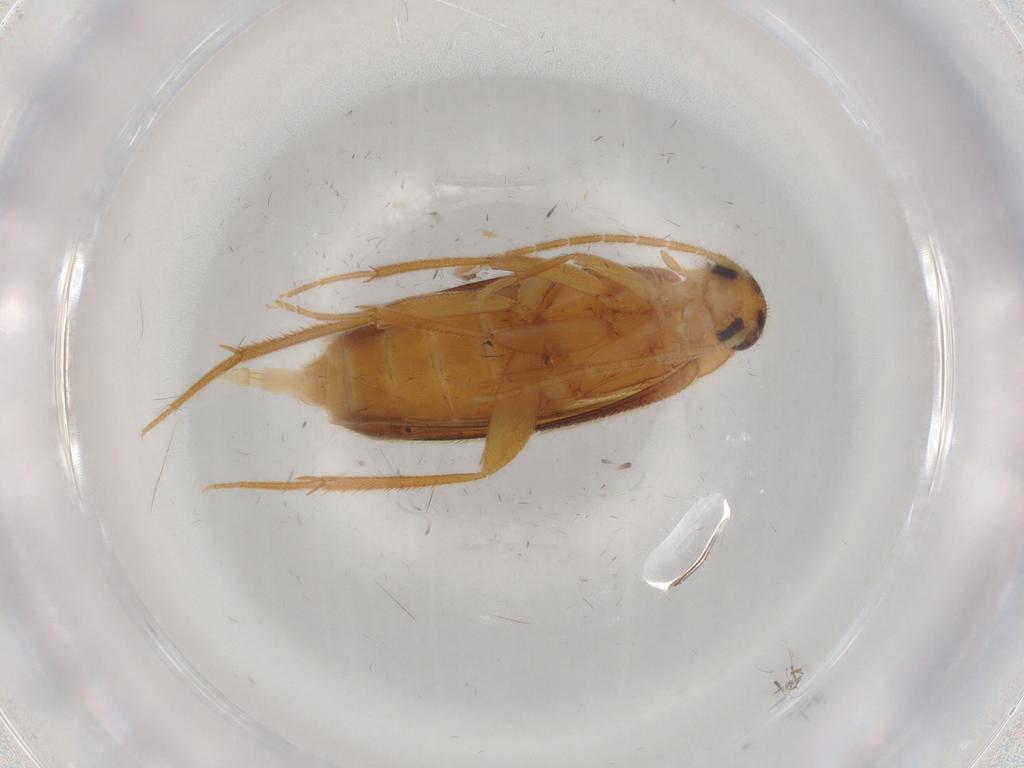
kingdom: Animalia
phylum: Arthropoda
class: Insecta
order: Coleoptera
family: Scraptiidae
